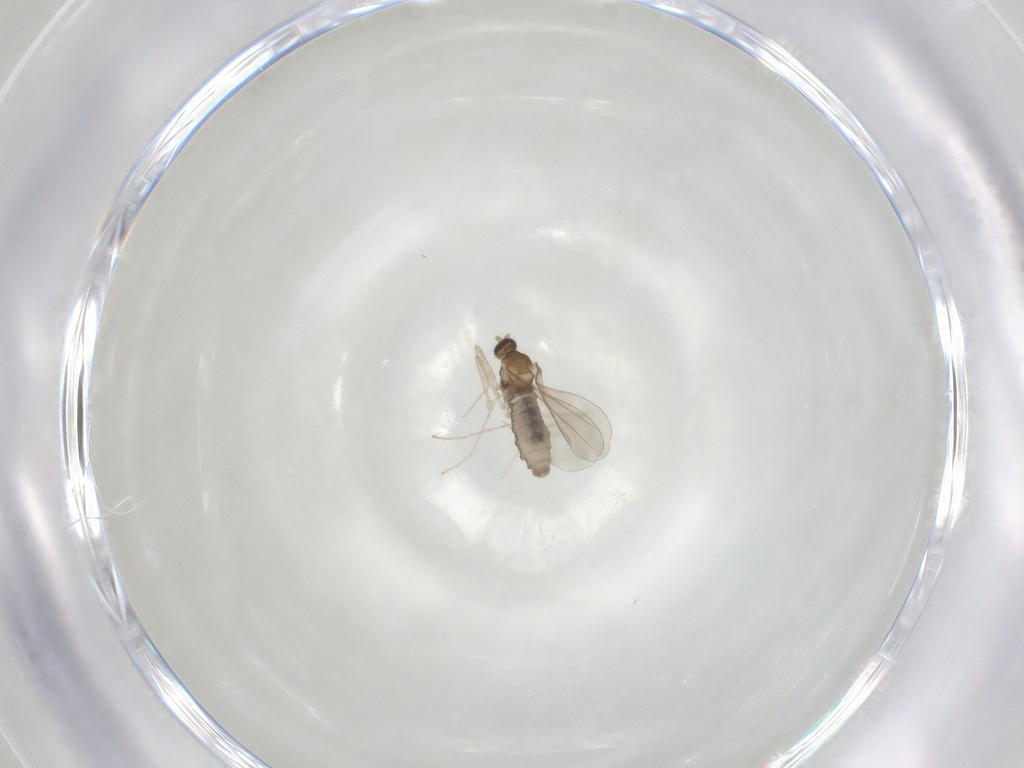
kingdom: Animalia
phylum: Arthropoda
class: Insecta
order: Diptera
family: Cecidomyiidae
